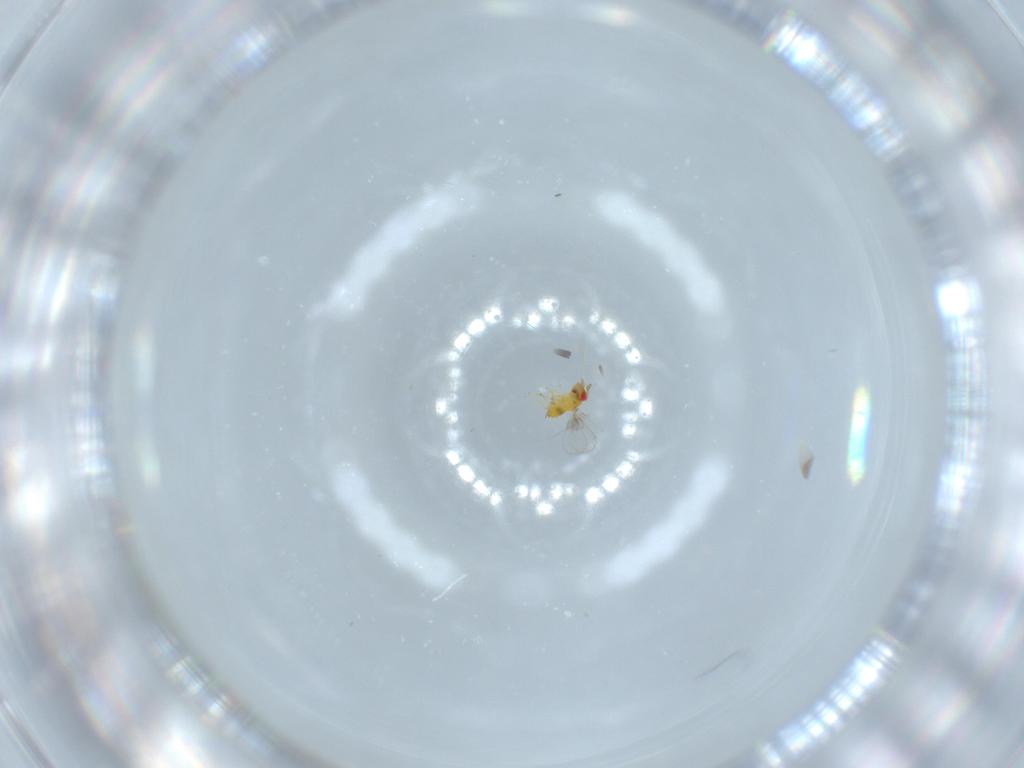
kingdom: Animalia
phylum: Arthropoda
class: Insecta
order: Hymenoptera
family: Trichogrammatidae
